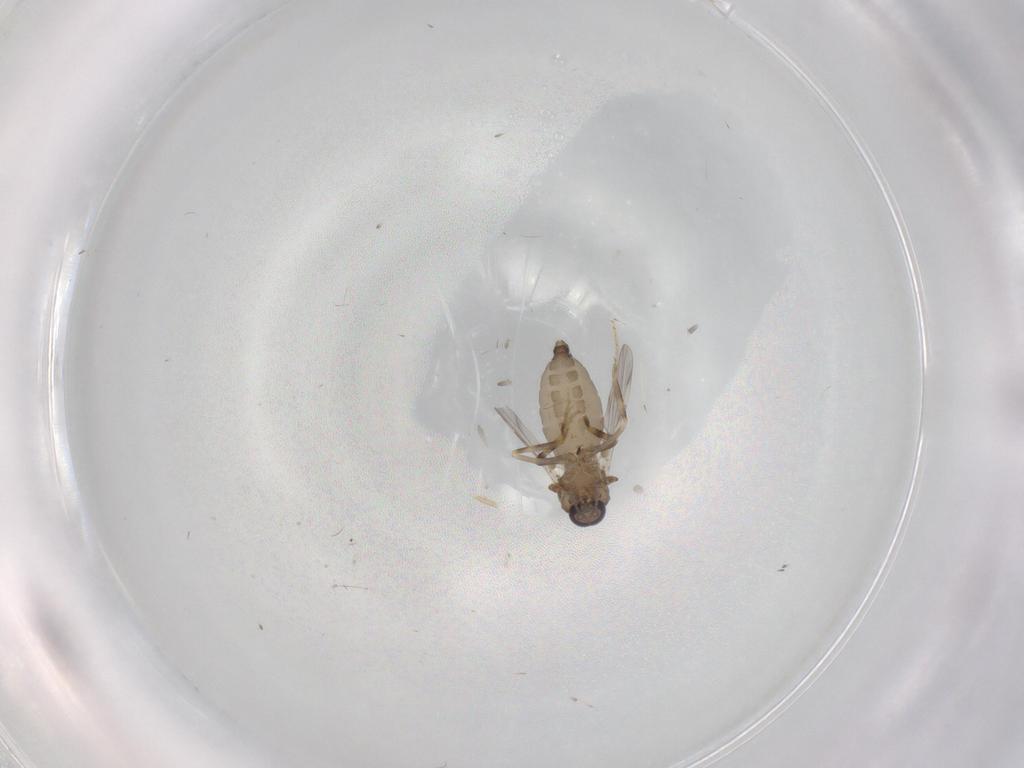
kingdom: Animalia
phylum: Arthropoda
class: Insecta
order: Diptera
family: Ceratopogonidae
